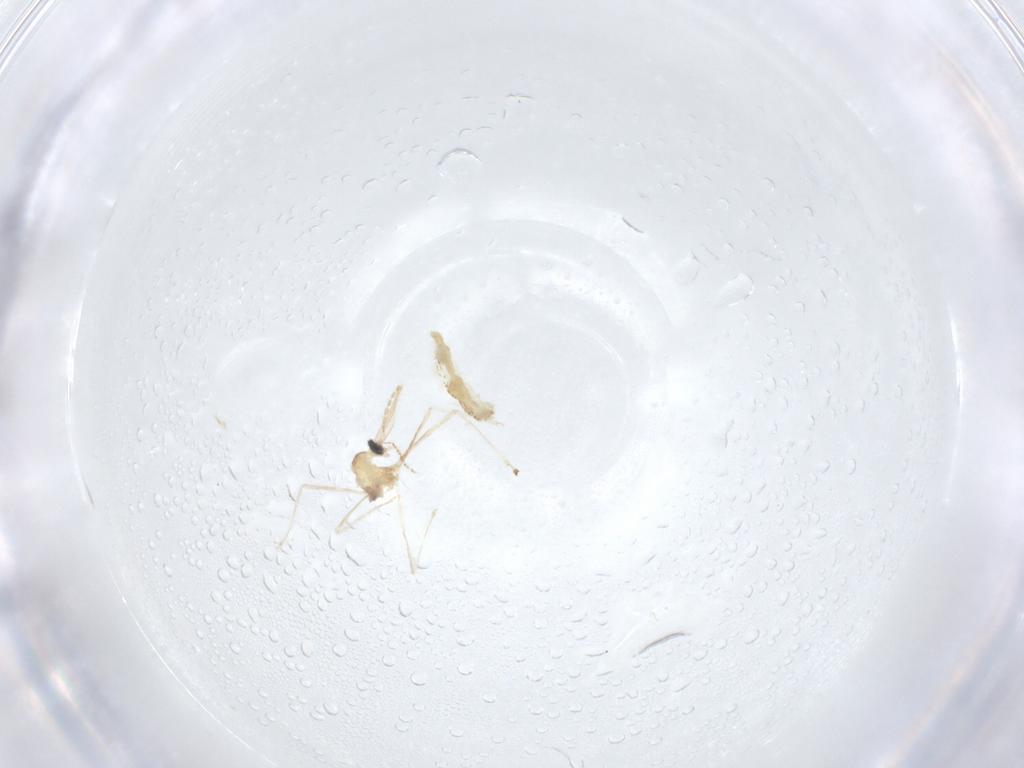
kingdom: Animalia
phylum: Arthropoda
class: Insecta
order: Diptera
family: Cecidomyiidae
